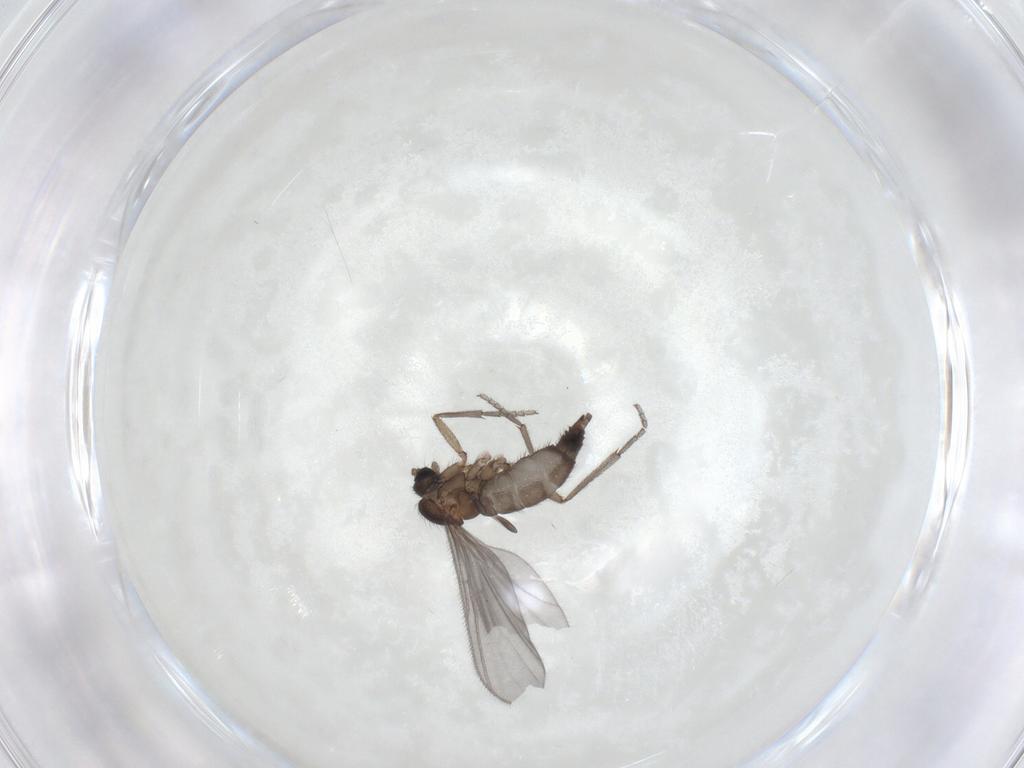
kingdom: Animalia
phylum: Arthropoda
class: Insecta
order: Diptera
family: Sciaridae
